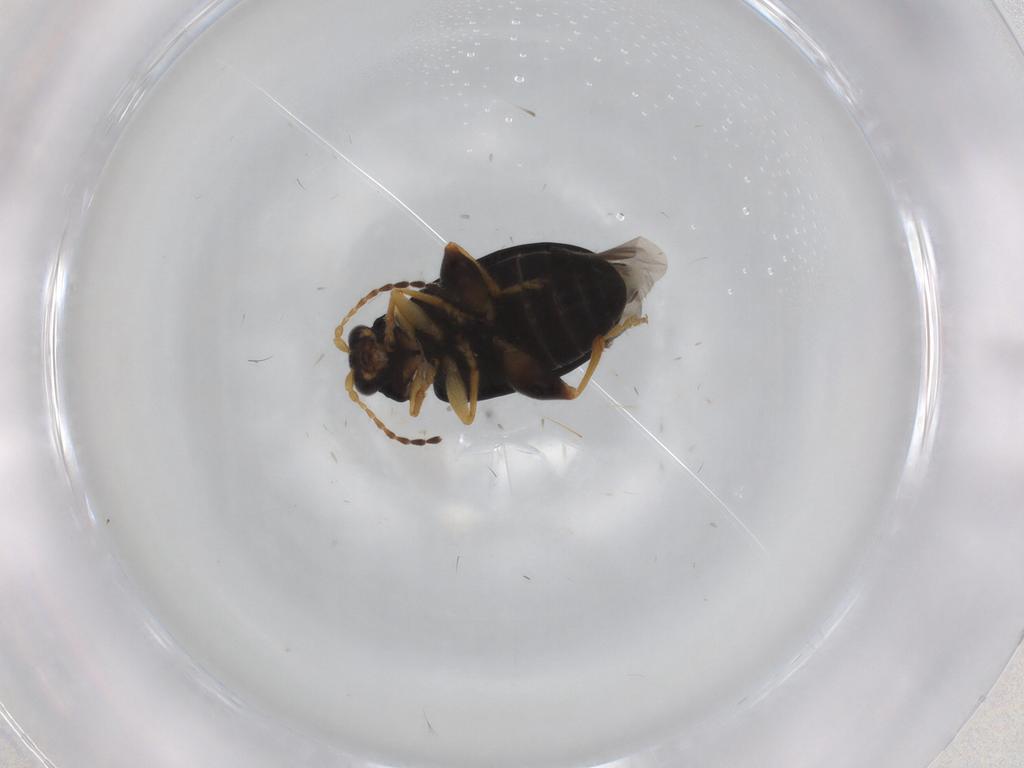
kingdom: Animalia
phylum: Arthropoda
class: Insecta
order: Coleoptera
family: Chrysomelidae
